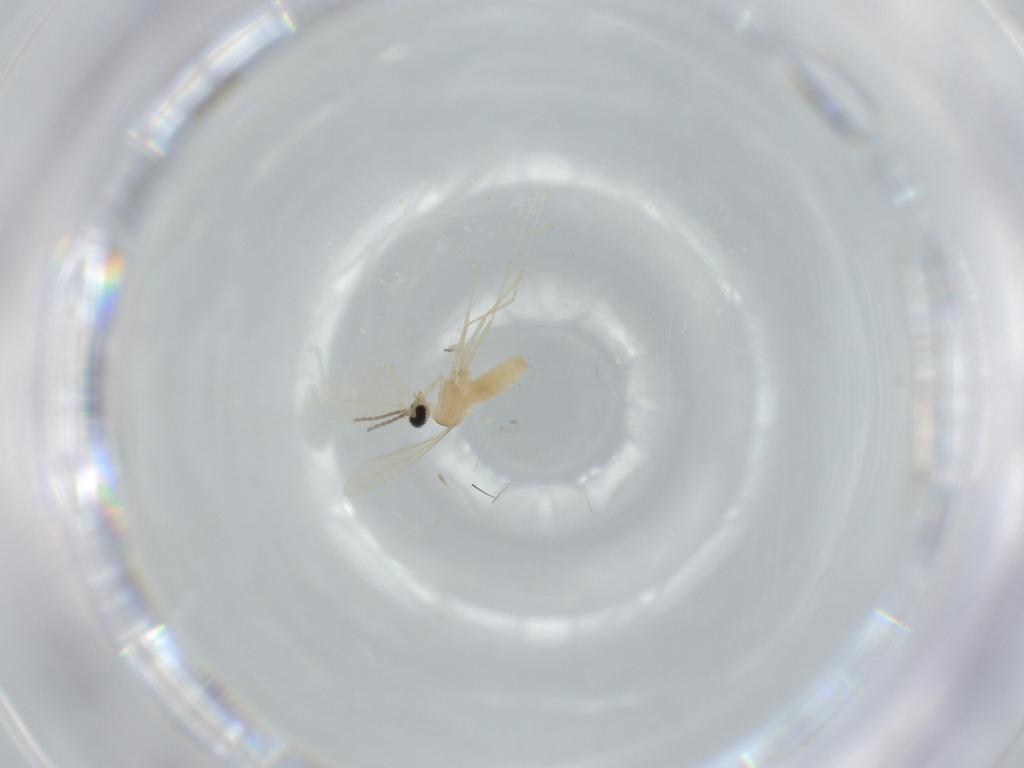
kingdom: Animalia
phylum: Arthropoda
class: Insecta
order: Diptera
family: Cecidomyiidae
